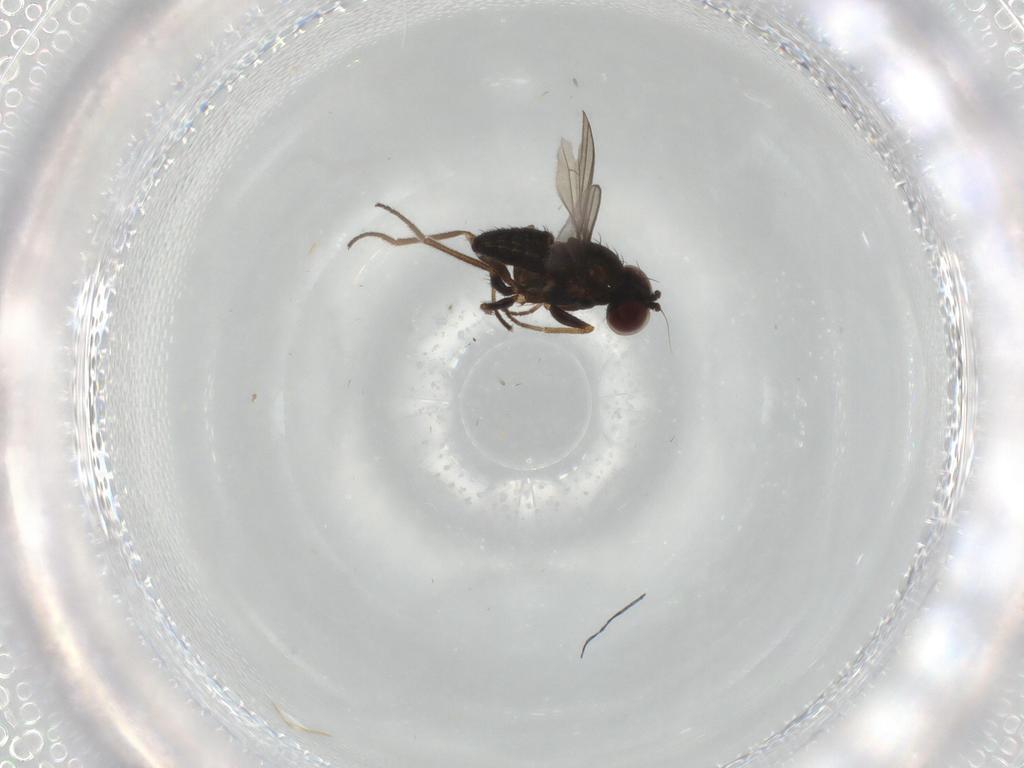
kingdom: Animalia
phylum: Arthropoda
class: Insecta
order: Diptera
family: Dolichopodidae
